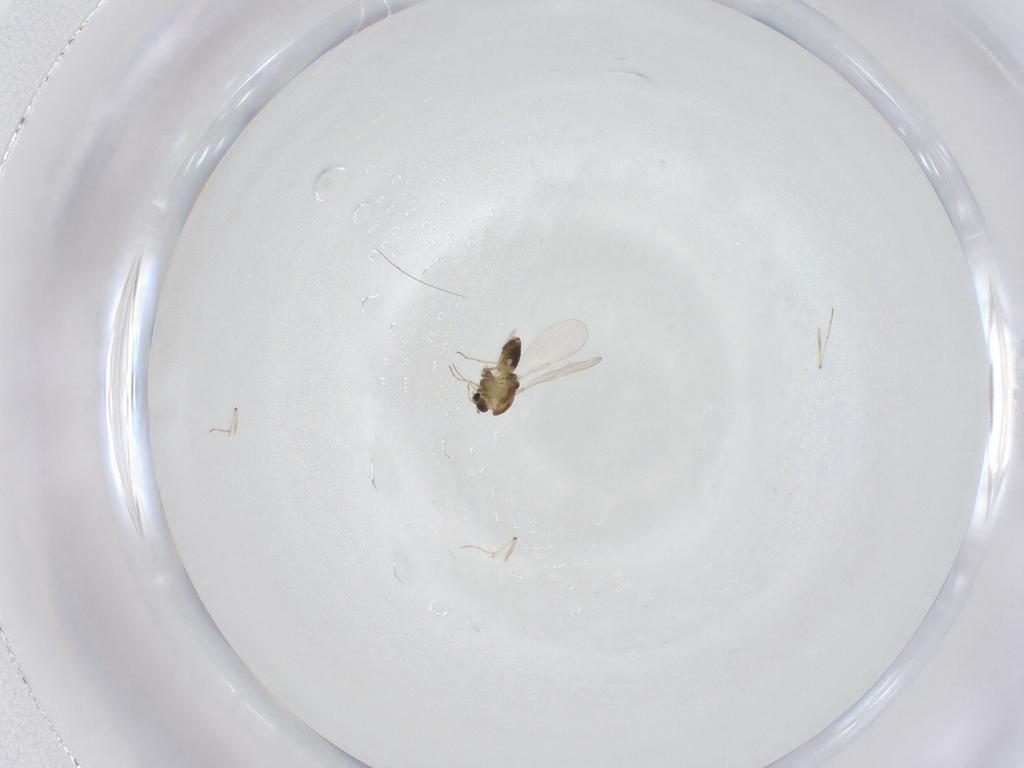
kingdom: Animalia
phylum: Arthropoda
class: Insecta
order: Diptera
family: Chironomidae
